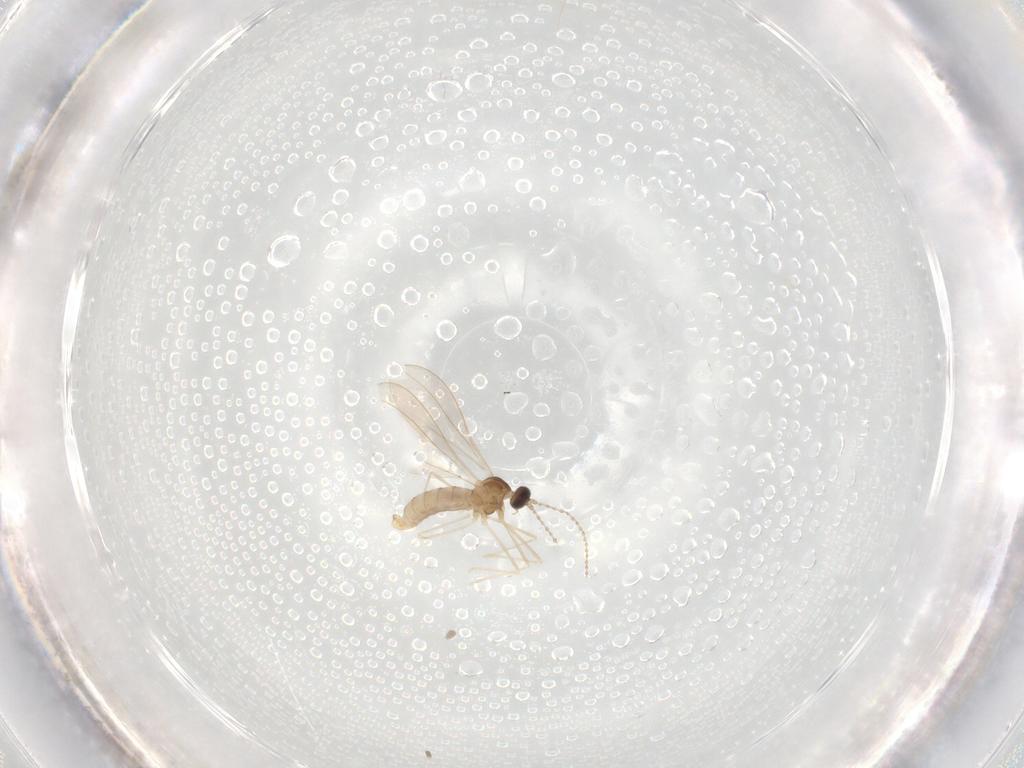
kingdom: Animalia
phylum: Arthropoda
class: Insecta
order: Diptera
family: Cecidomyiidae
